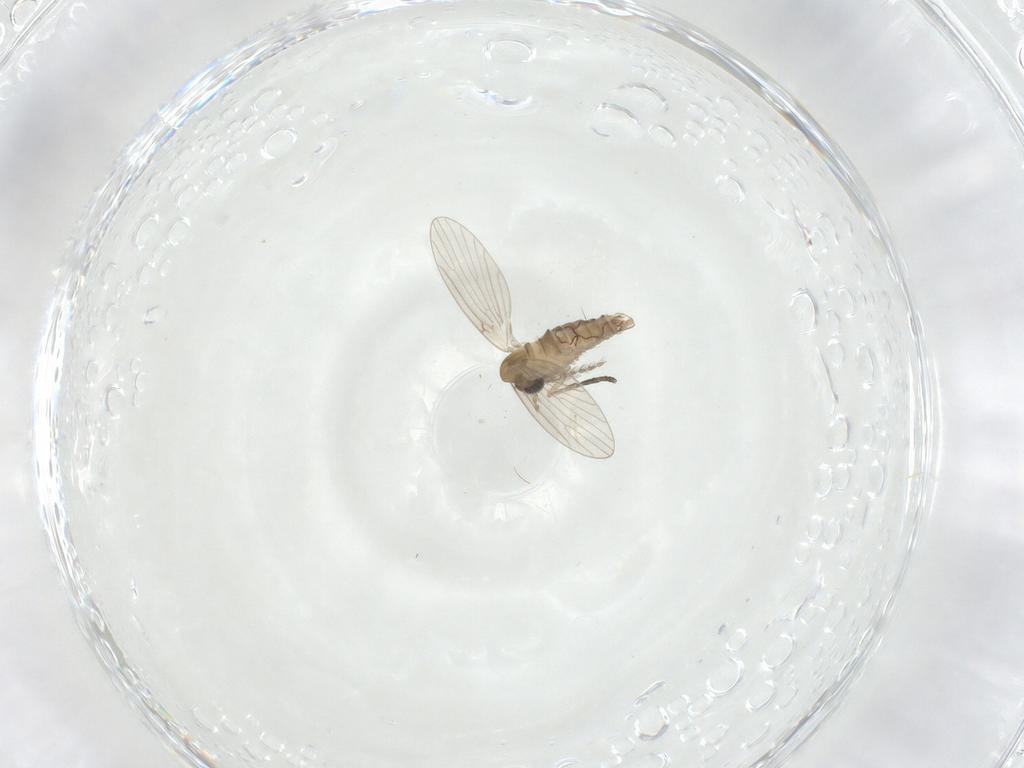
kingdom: Animalia
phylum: Arthropoda
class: Insecta
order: Diptera
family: Psychodidae
